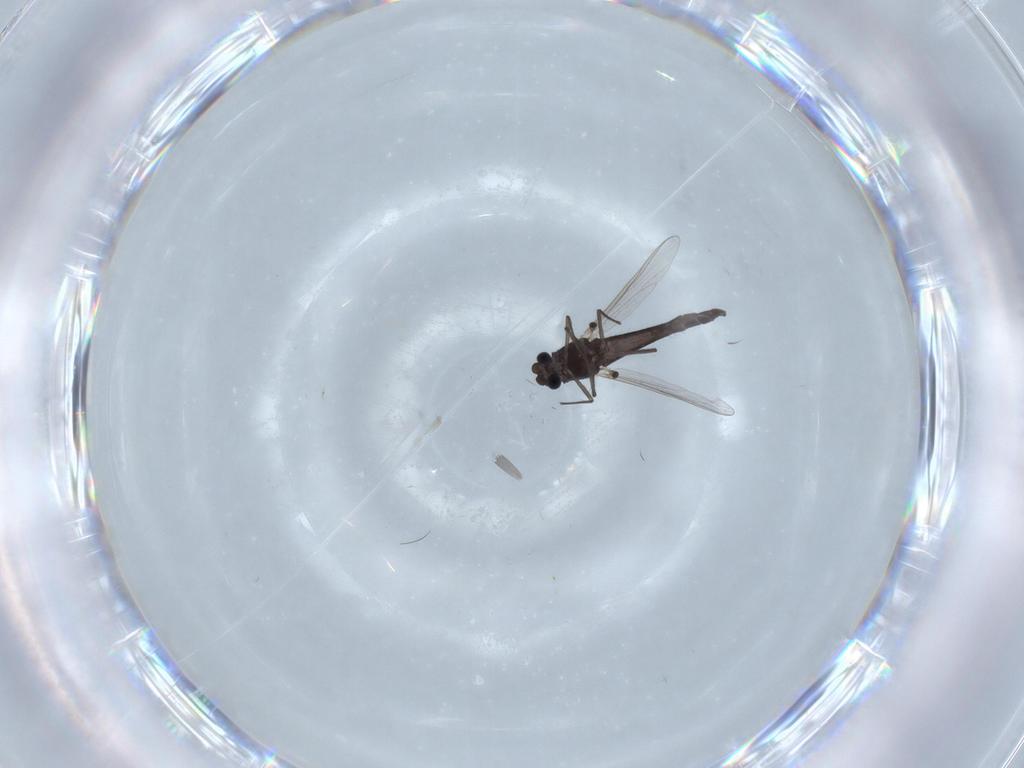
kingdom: Animalia
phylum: Arthropoda
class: Insecta
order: Diptera
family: Chironomidae
